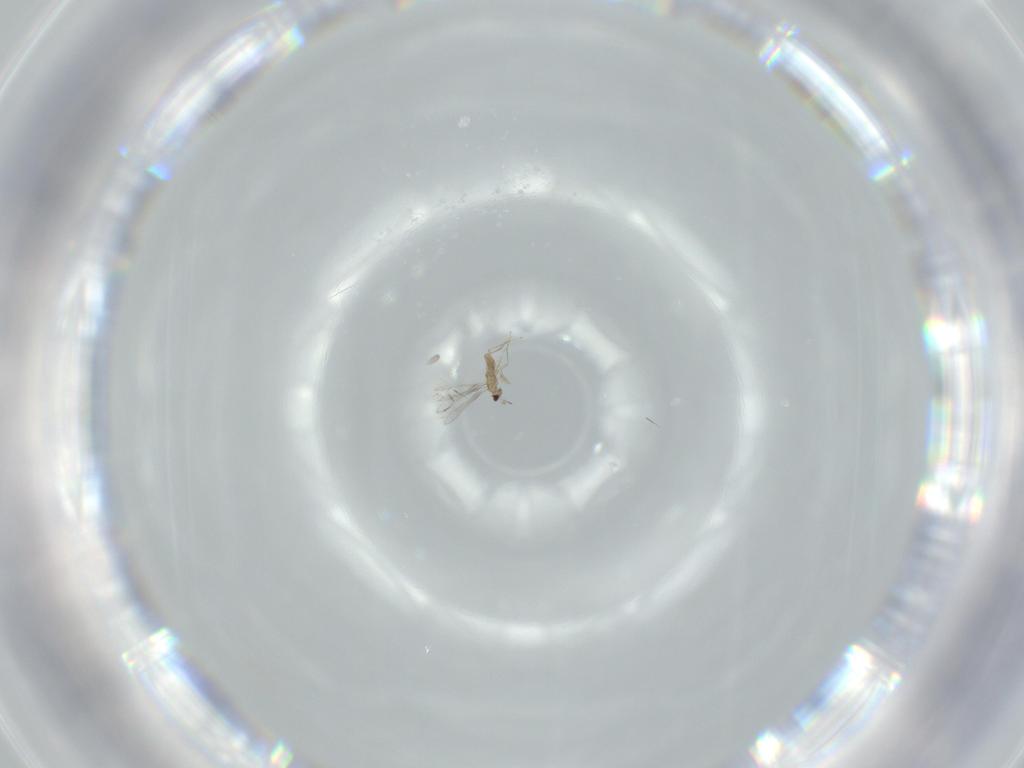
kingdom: Animalia
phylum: Arthropoda
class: Insecta
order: Hymenoptera
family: Mymaridae
